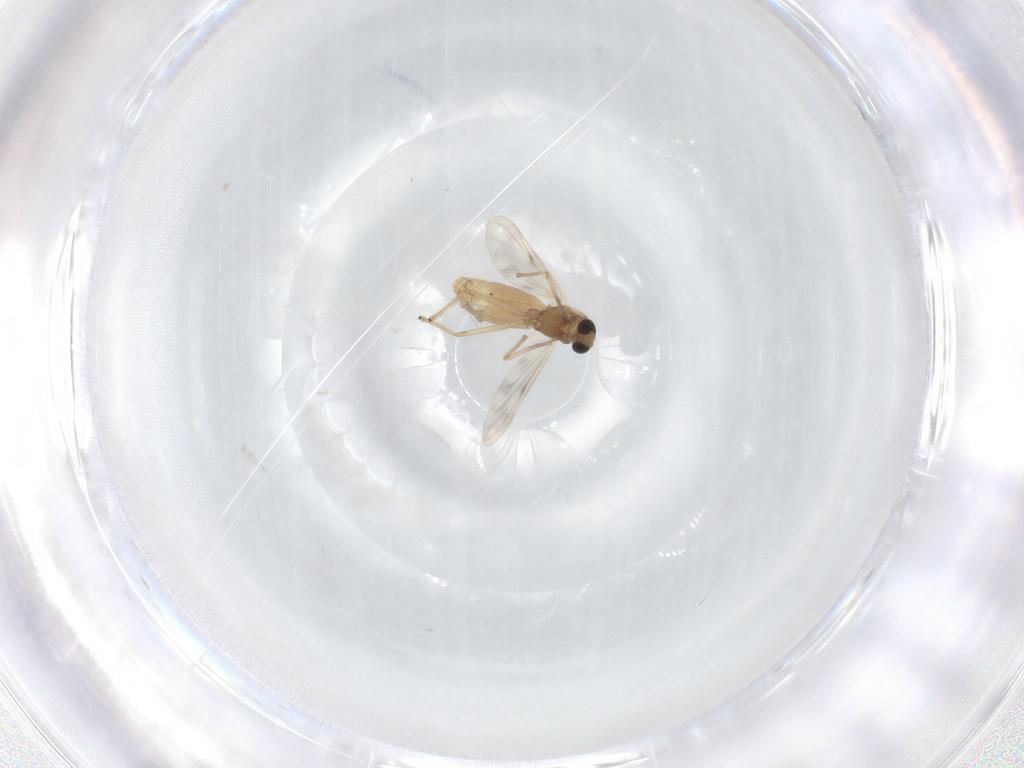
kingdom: Animalia
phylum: Arthropoda
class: Insecta
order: Diptera
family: Chironomidae
